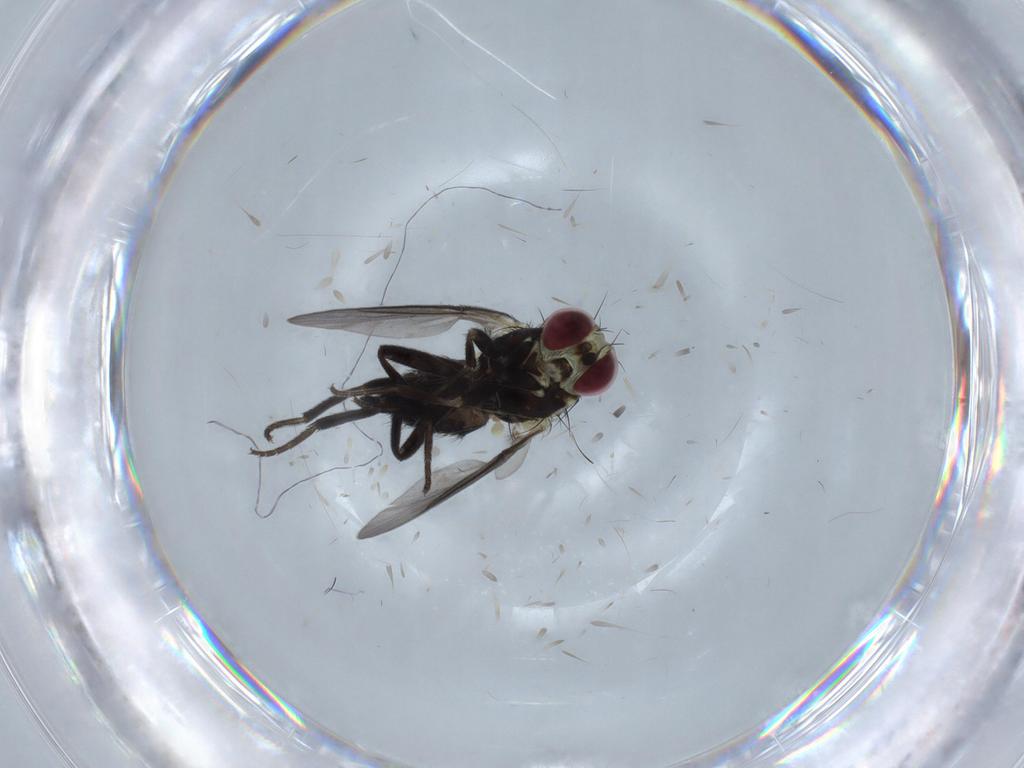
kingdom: Animalia
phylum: Arthropoda
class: Insecta
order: Diptera
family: Agromyzidae
